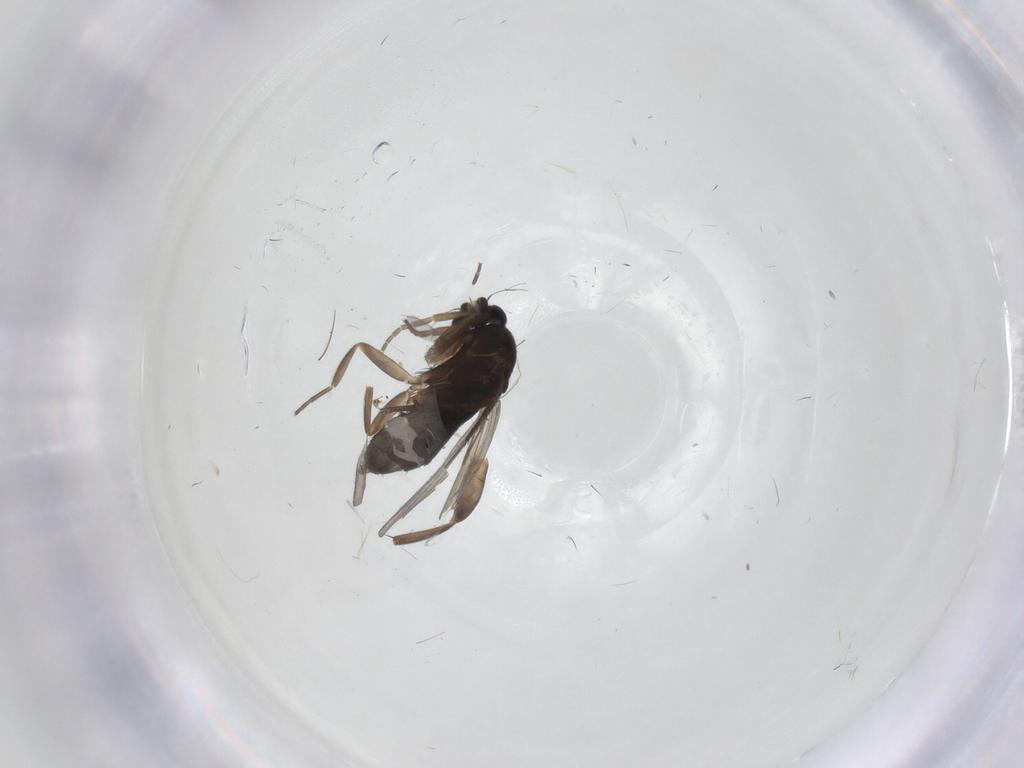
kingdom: Animalia
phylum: Arthropoda
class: Insecta
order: Diptera
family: Phoridae
